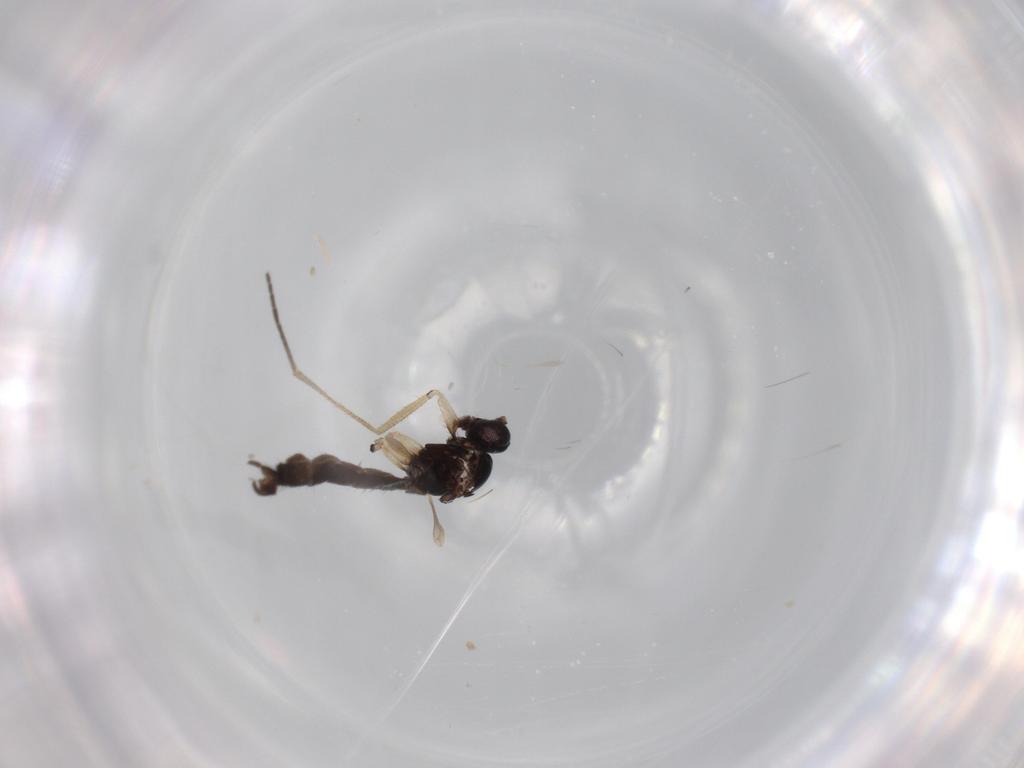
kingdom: Animalia
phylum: Arthropoda
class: Insecta
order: Diptera
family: Sciaridae
